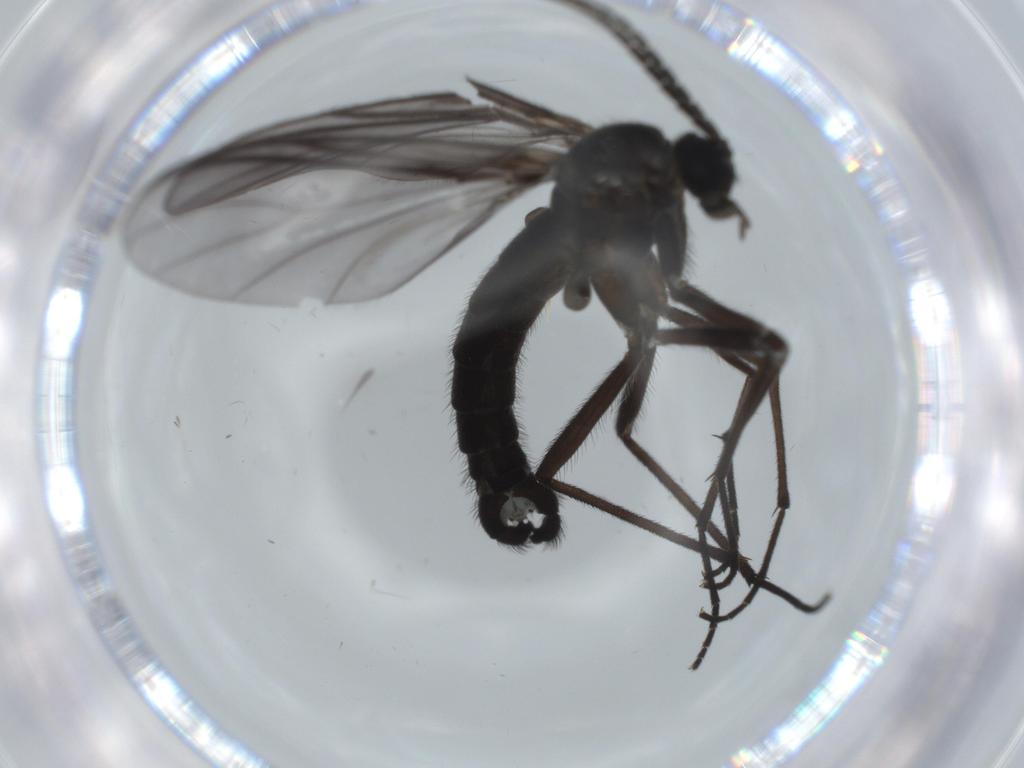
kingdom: Animalia
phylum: Arthropoda
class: Insecta
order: Diptera
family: Sciaridae
